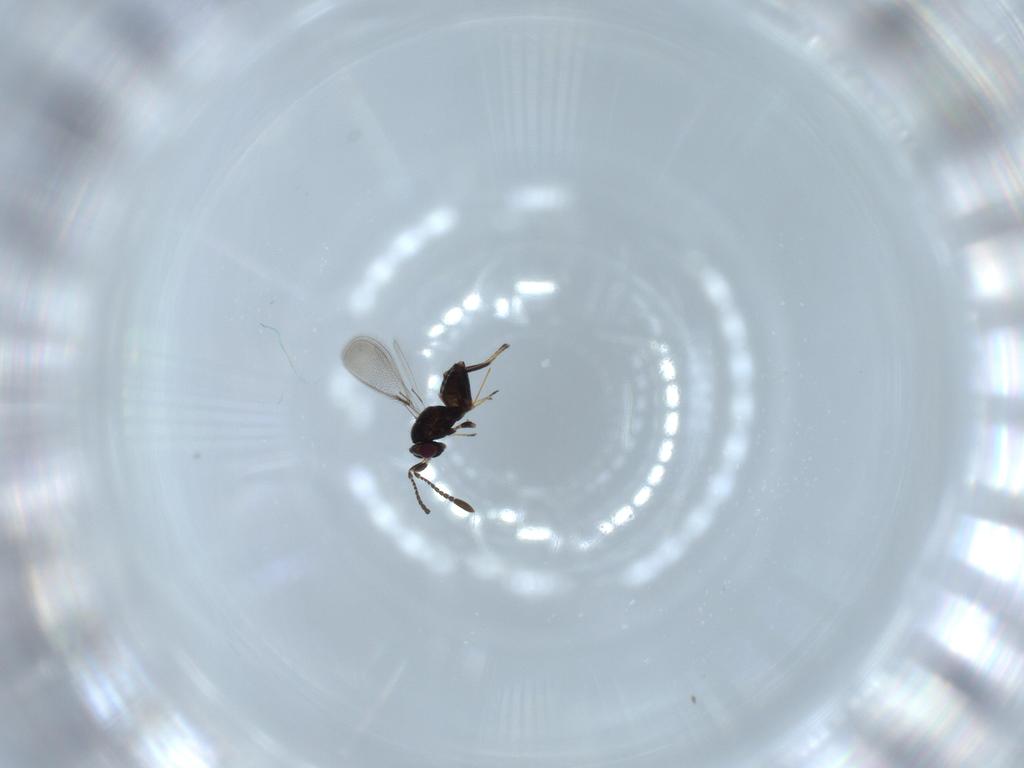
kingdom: Animalia
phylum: Arthropoda
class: Insecta
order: Hymenoptera
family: Mymaridae
